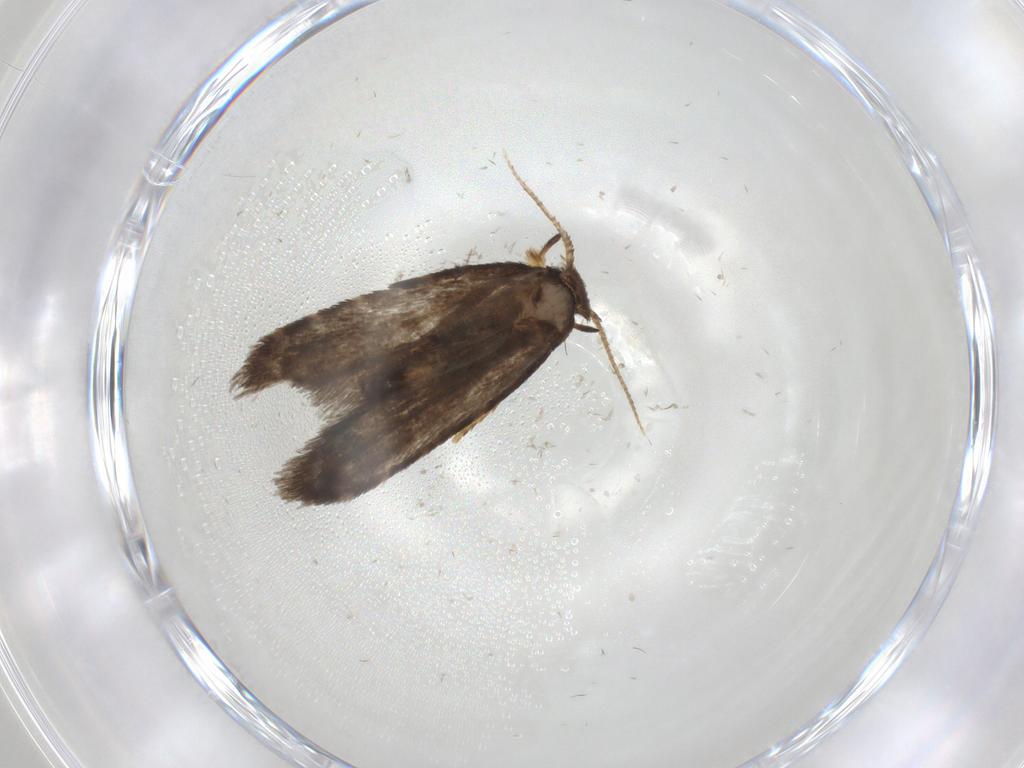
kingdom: Animalia
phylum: Arthropoda
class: Insecta
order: Lepidoptera
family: Psychidae
